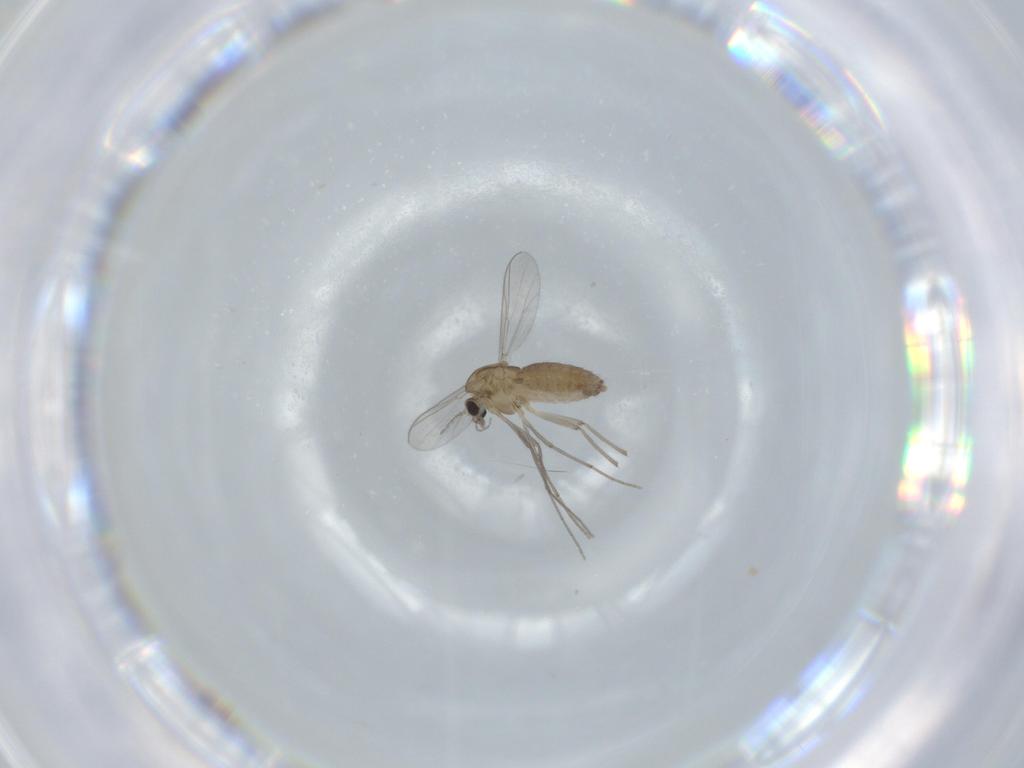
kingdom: Animalia
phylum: Arthropoda
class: Insecta
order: Diptera
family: Chironomidae
